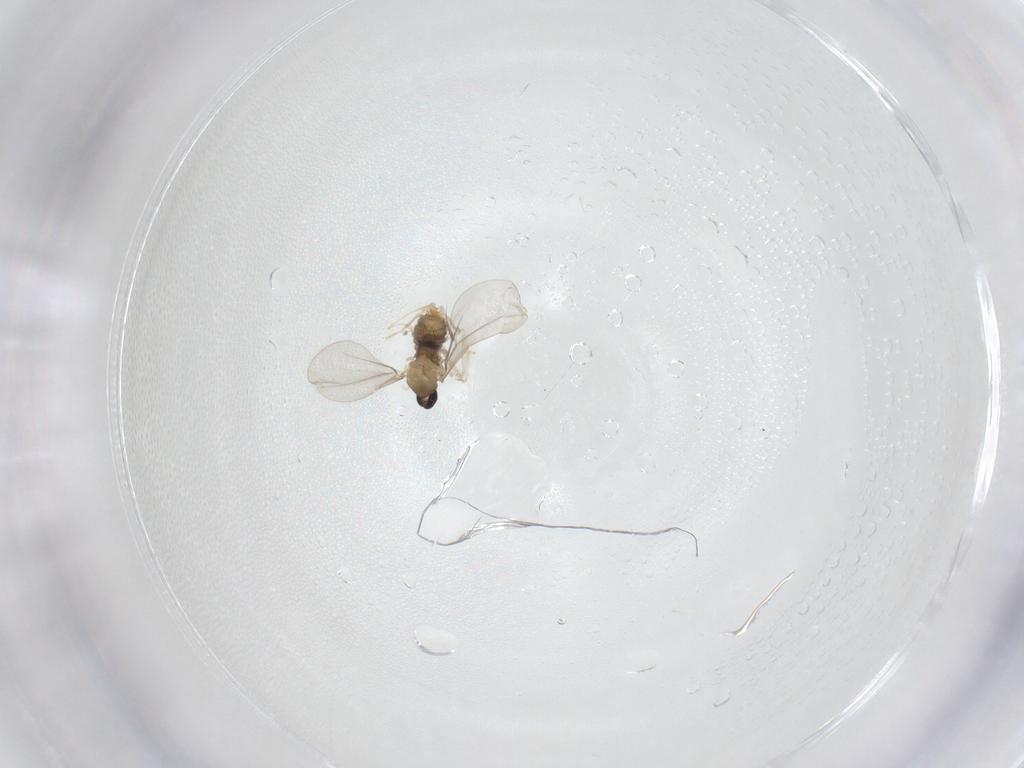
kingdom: Animalia
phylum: Arthropoda
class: Insecta
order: Diptera
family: Cecidomyiidae
